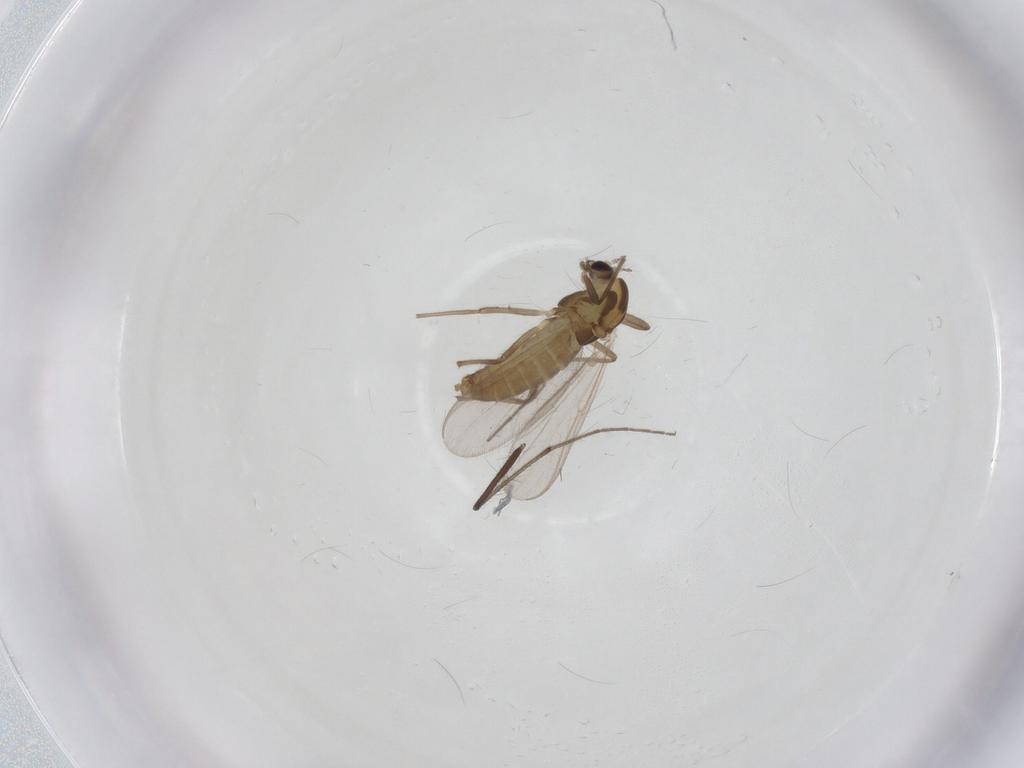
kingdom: Animalia
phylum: Arthropoda
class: Insecta
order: Diptera
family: Chironomidae
